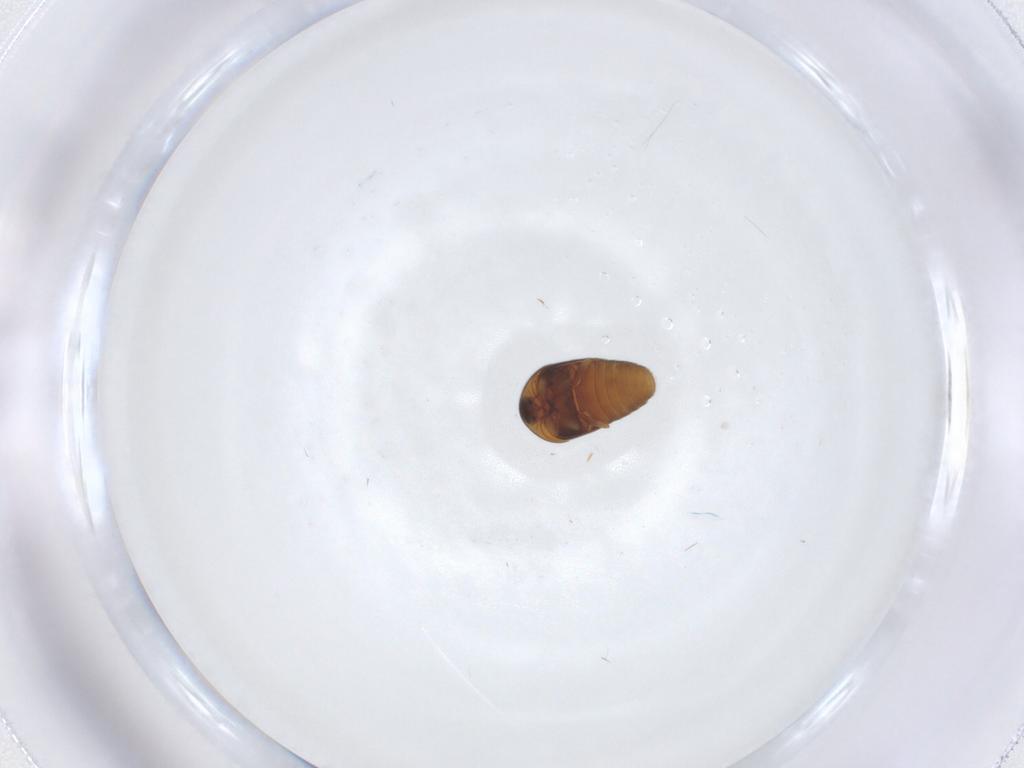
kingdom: Animalia
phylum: Arthropoda
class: Insecta
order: Coleoptera
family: Corylophidae
